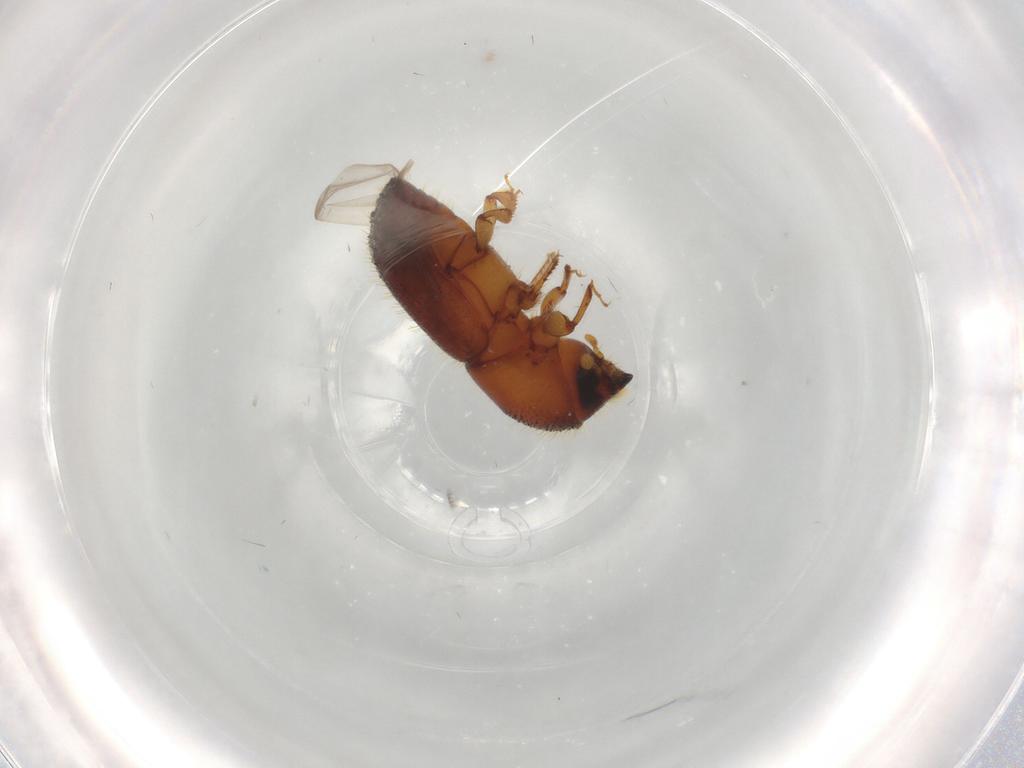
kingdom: Animalia
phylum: Arthropoda
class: Insecta
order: Coleoptera
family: Curculionidae
